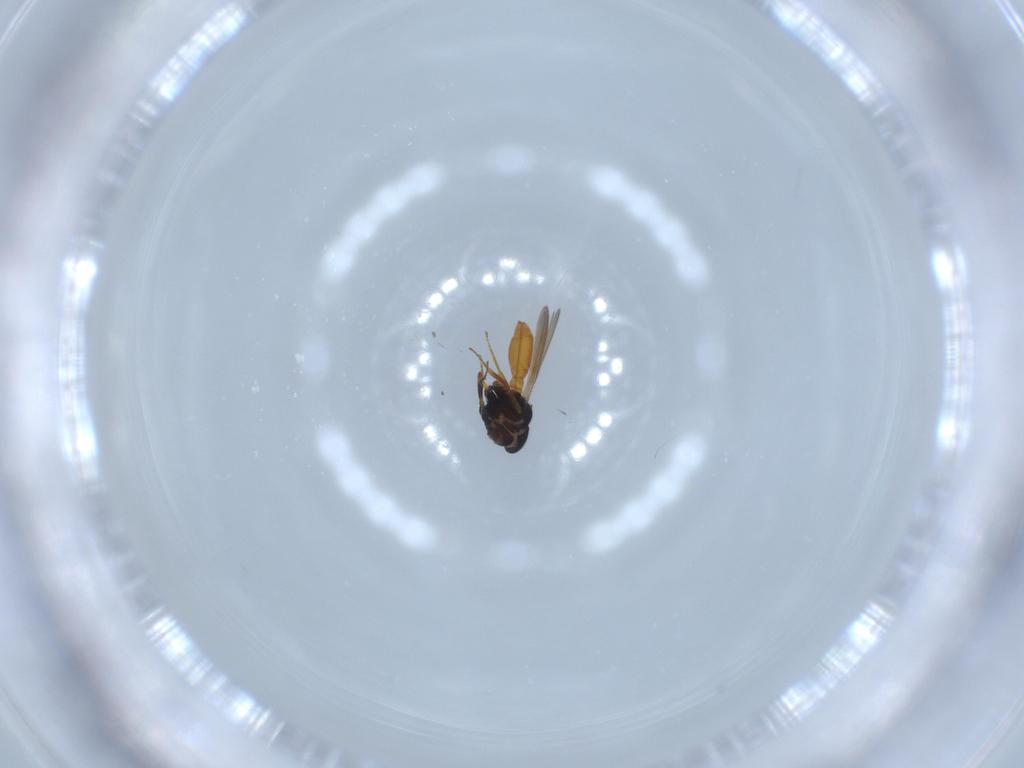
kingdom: Animalia
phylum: Arthropoda
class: Insecta
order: Hymenoptera
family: Scelionidae
